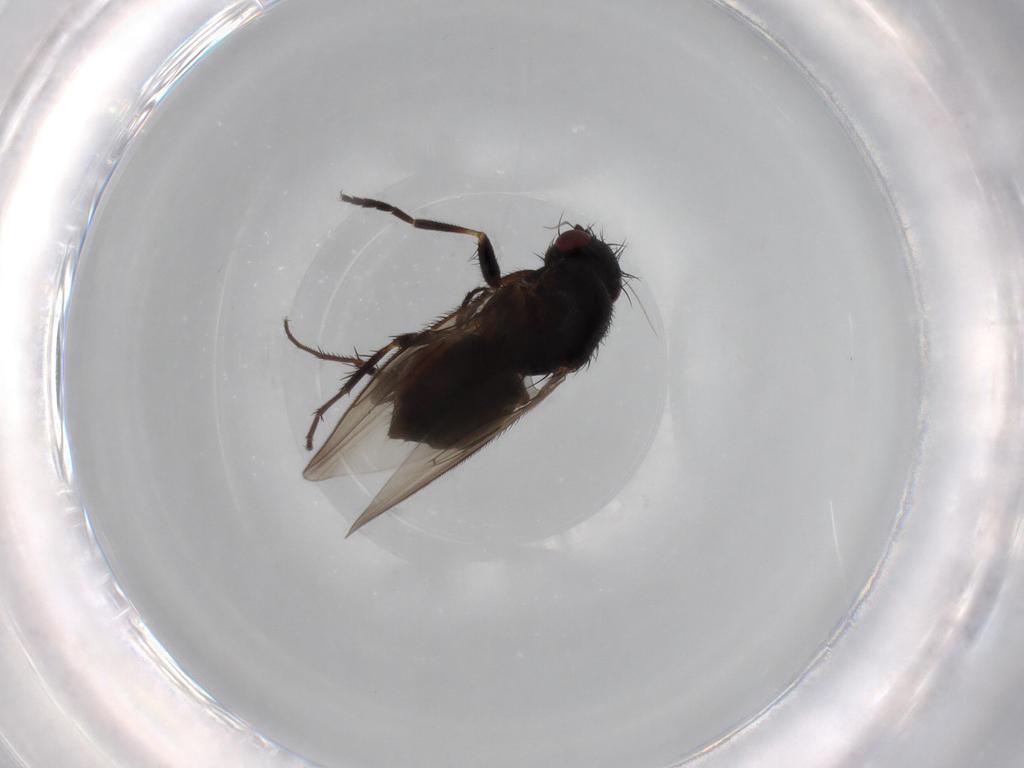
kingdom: Animalia
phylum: Arthropoda
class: Insecta
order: Diptera
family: Sphaeroceridae
